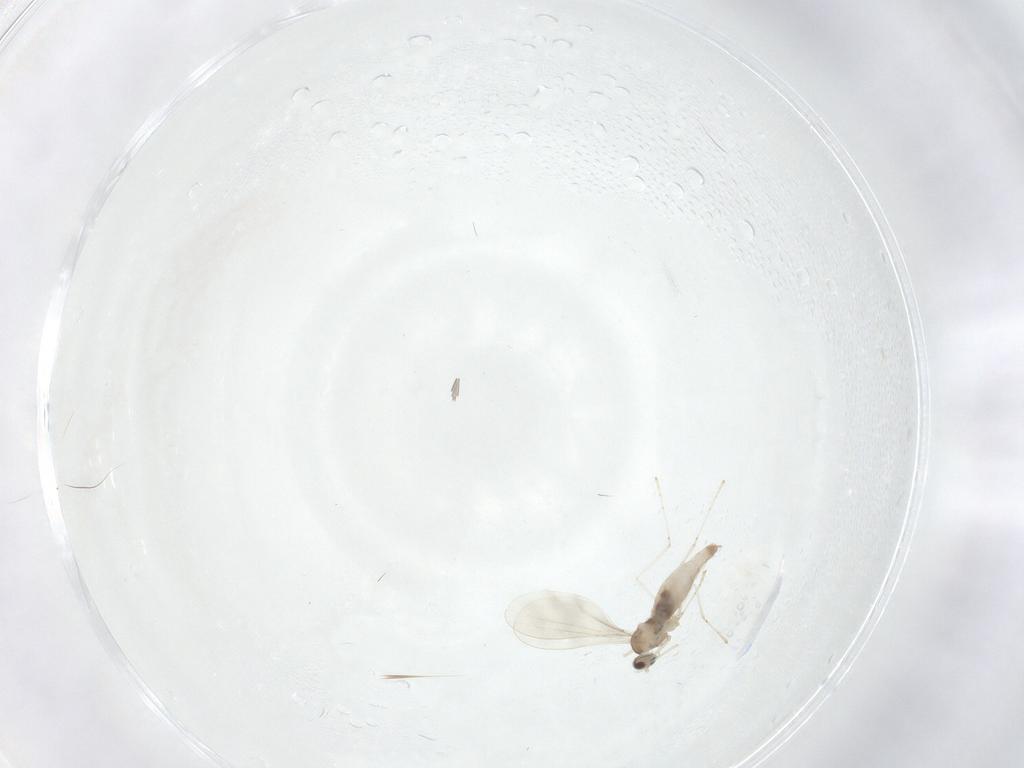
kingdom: Animalia
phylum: Arthropoda
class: Insecta
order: Diptera
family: Cecidomyiidae
